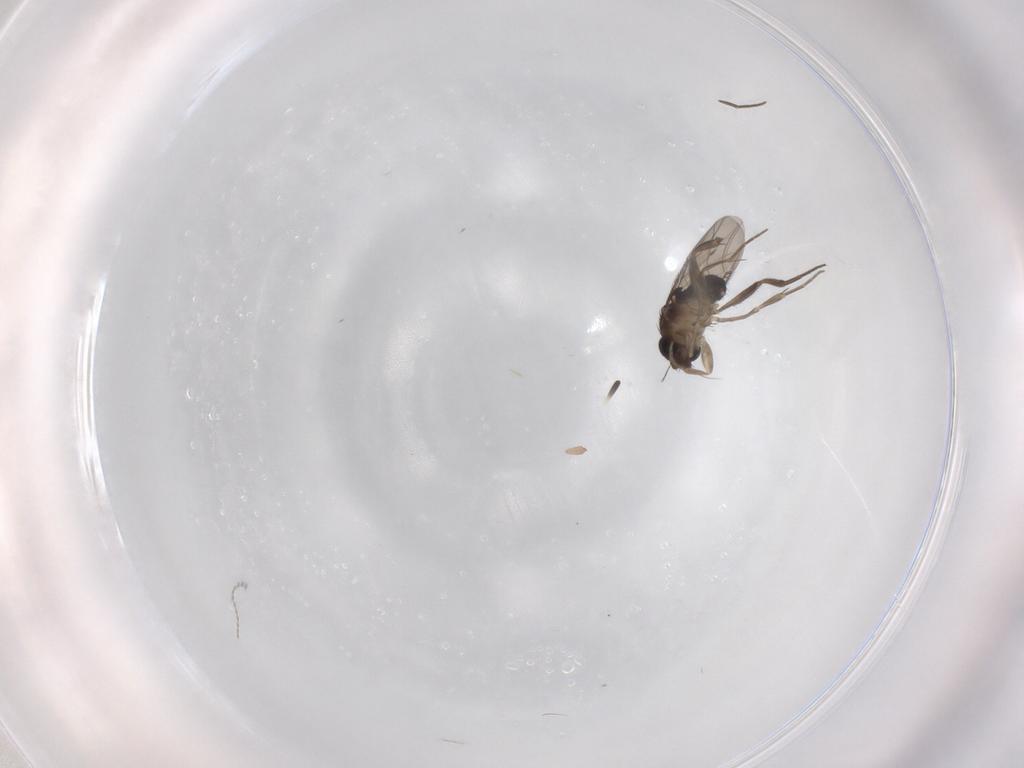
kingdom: Animalia
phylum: Arthropoda
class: Insecta
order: Diptera
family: Phoridae
